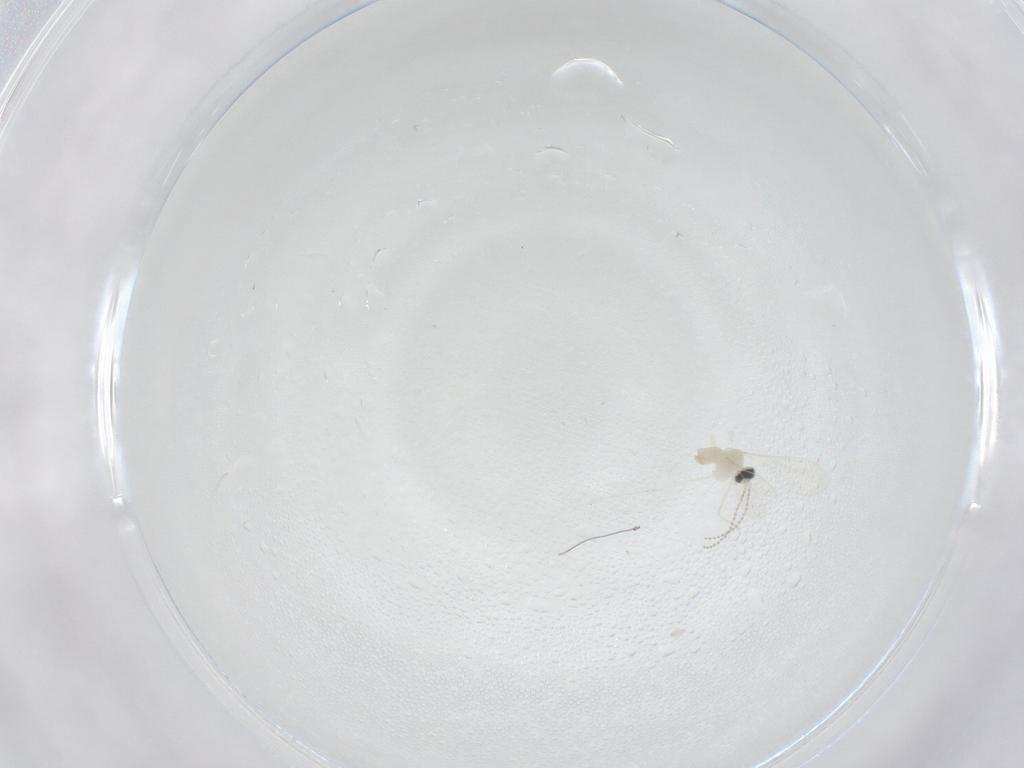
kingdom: Animalia
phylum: Arthropoda
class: Insecta
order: Diptera
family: Cecidomyiidae
